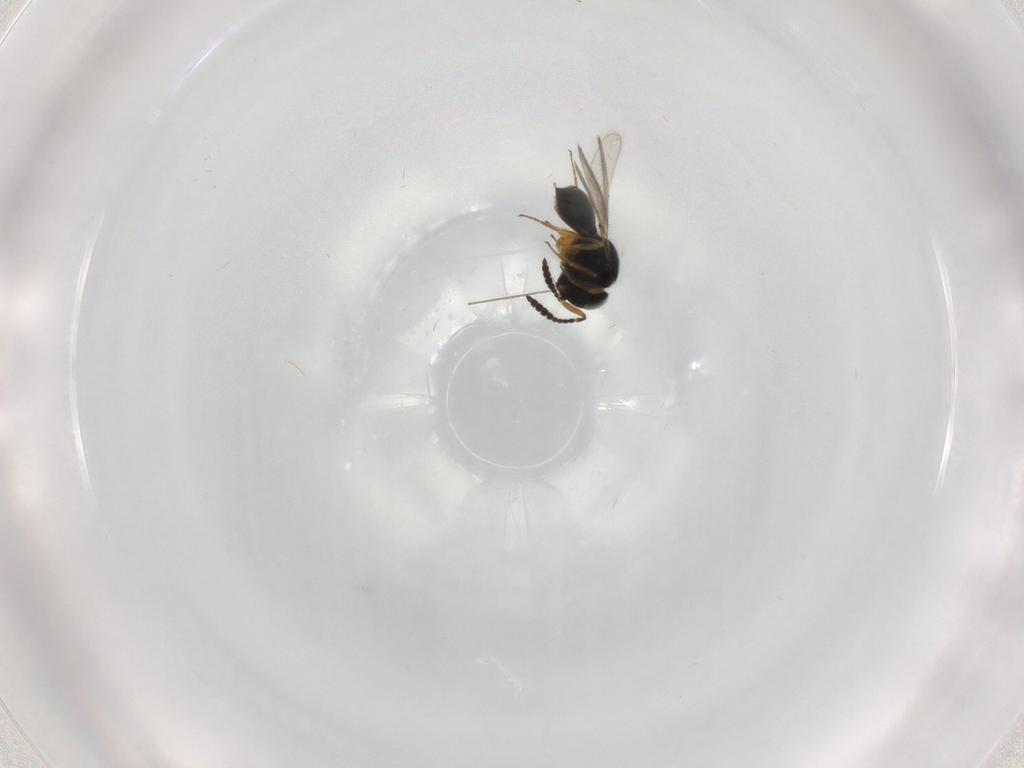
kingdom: Animalia
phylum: Arthropoda
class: Insecta
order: Hymenoptera
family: Scelionidae
